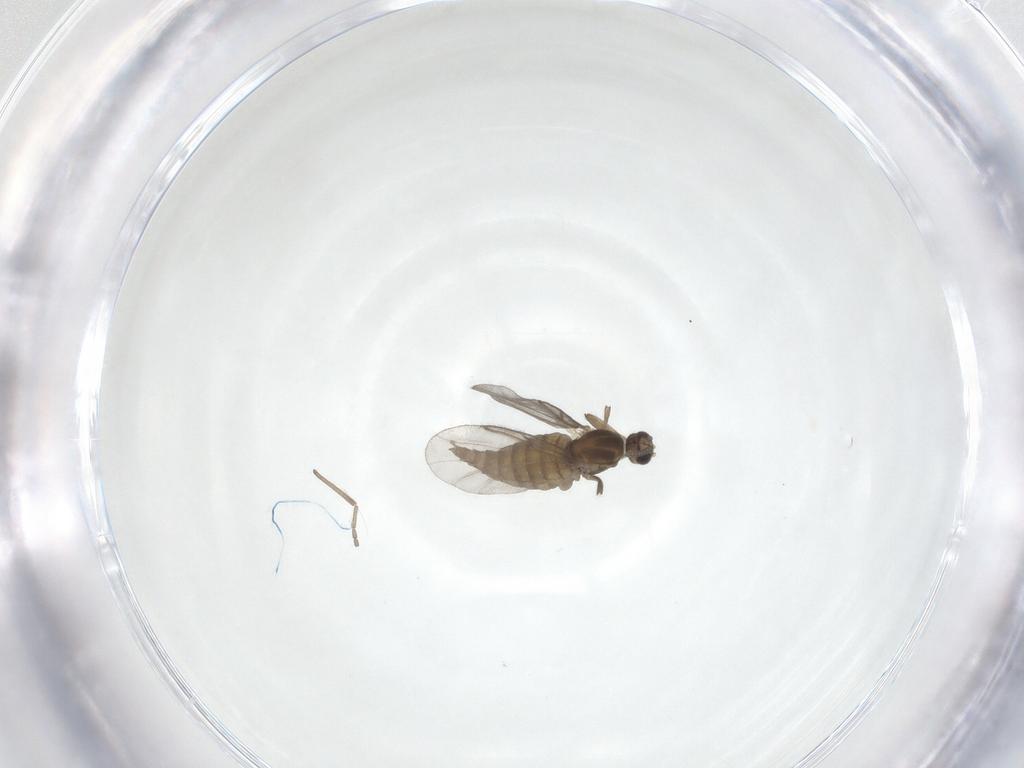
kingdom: Animalia
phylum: Arthropoda
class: Insecta
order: Diptera
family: Cecidomyiidae
